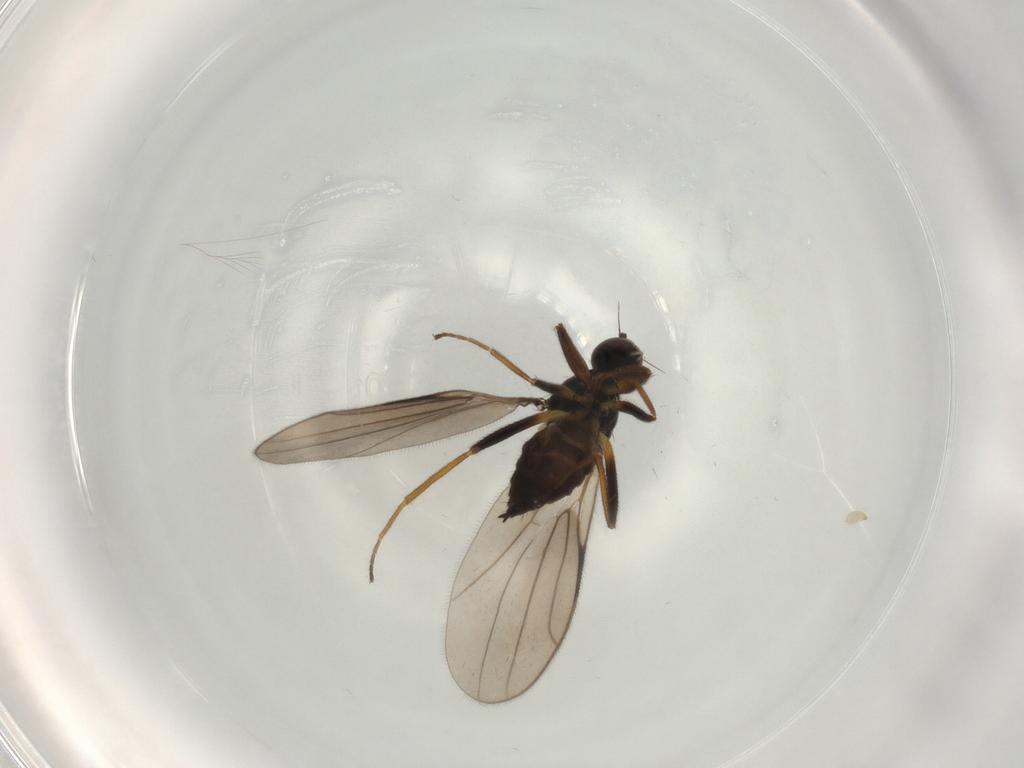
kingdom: Animalia
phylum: Arthropoda
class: Insecta
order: Diptera
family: Hybotidae
